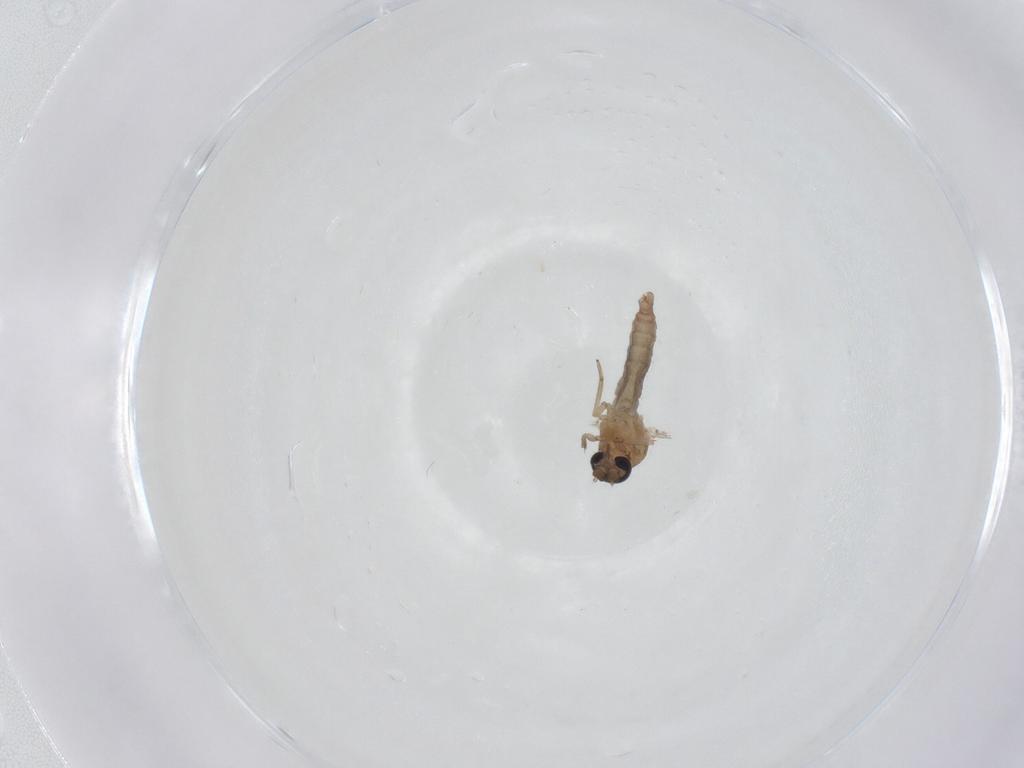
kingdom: Animalia
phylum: Arthropoda
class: Insecta
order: Diptera
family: Ceratopogonidae
